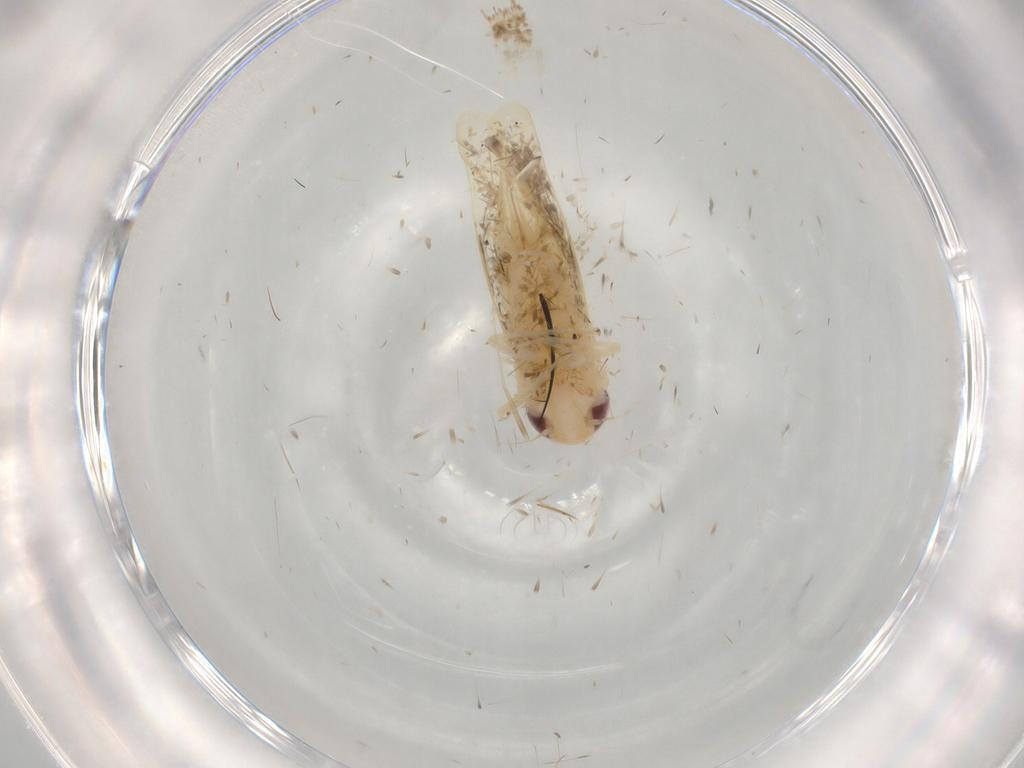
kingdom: Animalia
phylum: Arthropoda
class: Insecta
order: Hemiptera
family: Cicadellidae
